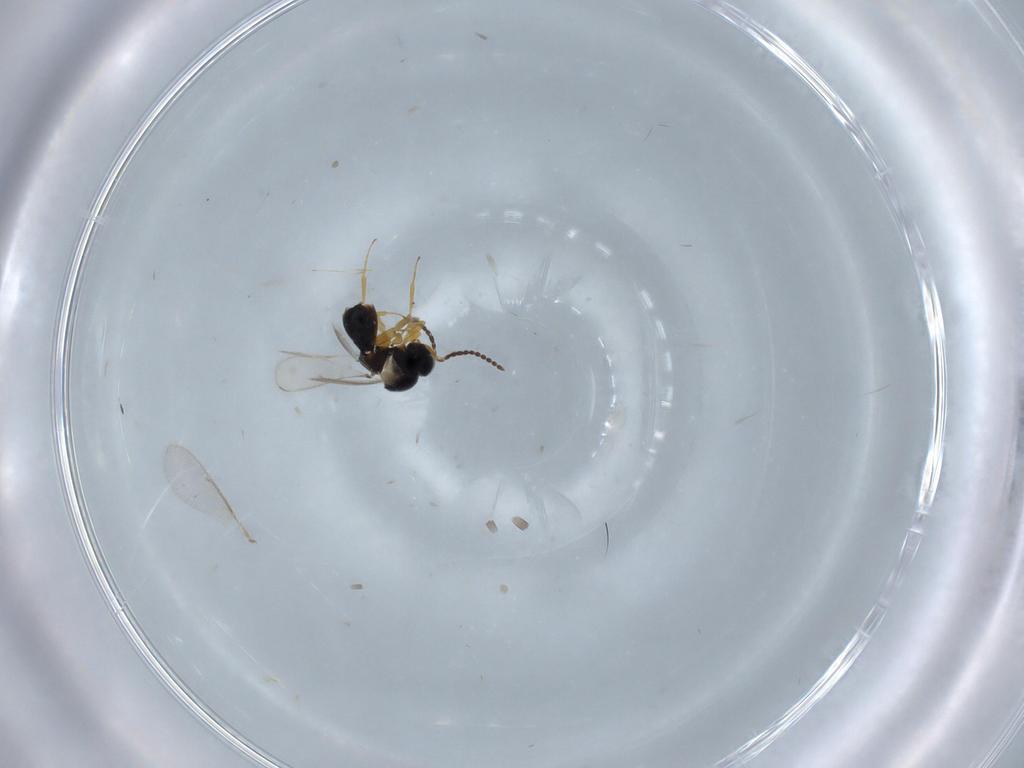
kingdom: Animalia
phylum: Arthropoda
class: Insecta
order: Hymenoptera
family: Scelionidae
